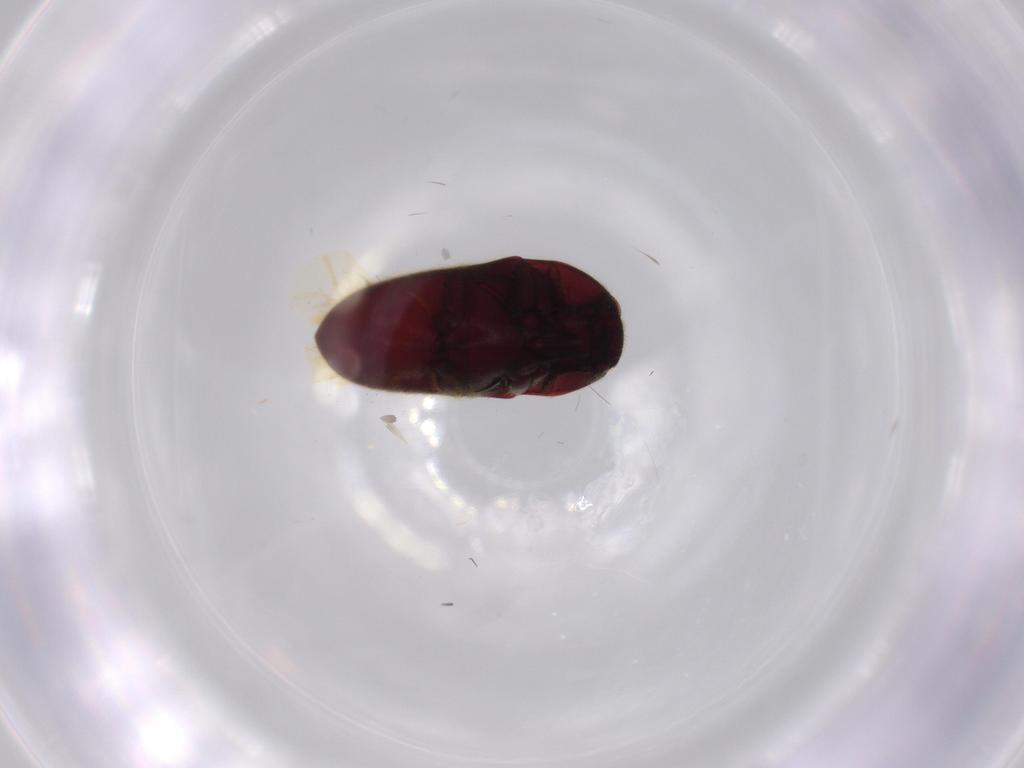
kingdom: Animalia
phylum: Arthropoda
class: Insecta
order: Coleoptera
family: Throscidae
